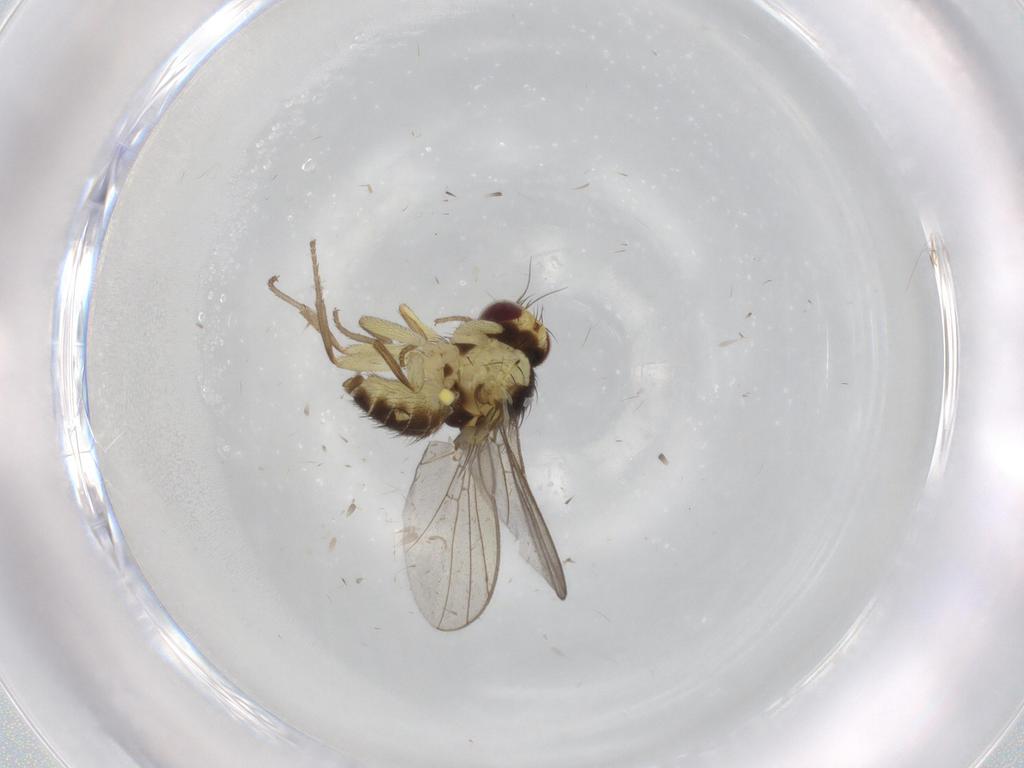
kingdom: Animalia
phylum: Arthropoda
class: Insecta
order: Diptera
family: Agromyzidae
